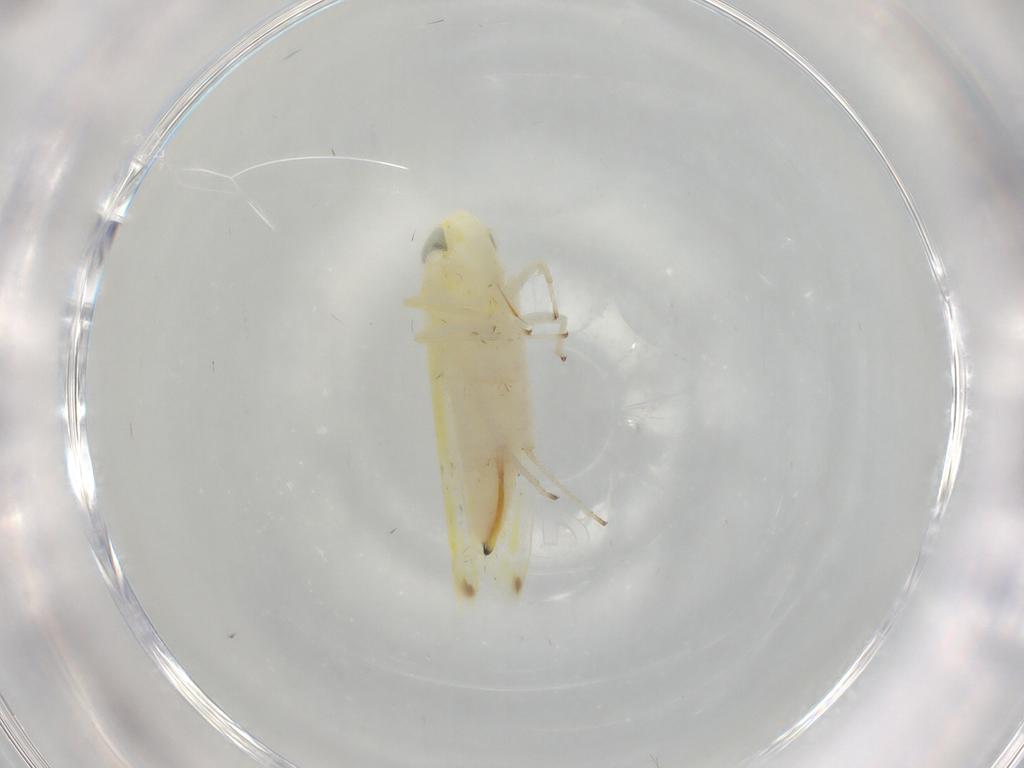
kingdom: Animalia
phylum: Arthropoda
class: Insecta
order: Hemiptera
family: Cicadellidae
